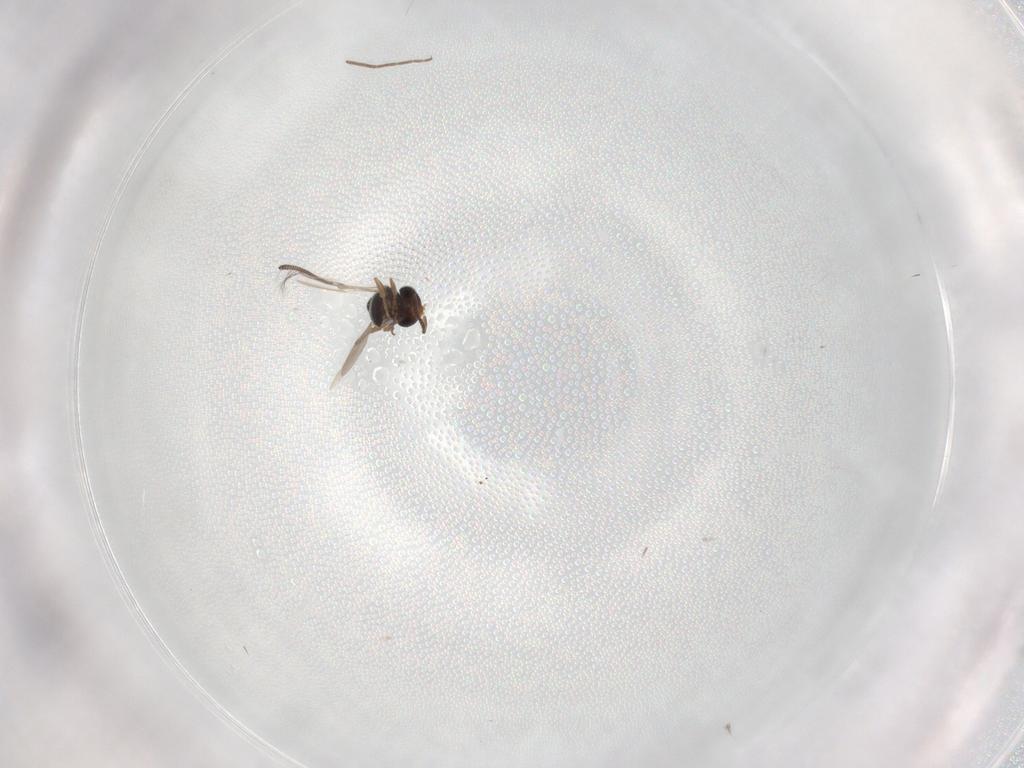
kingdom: Animalia
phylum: Arthropoda
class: Insecta
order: Hymenoptera
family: Scelionidae
